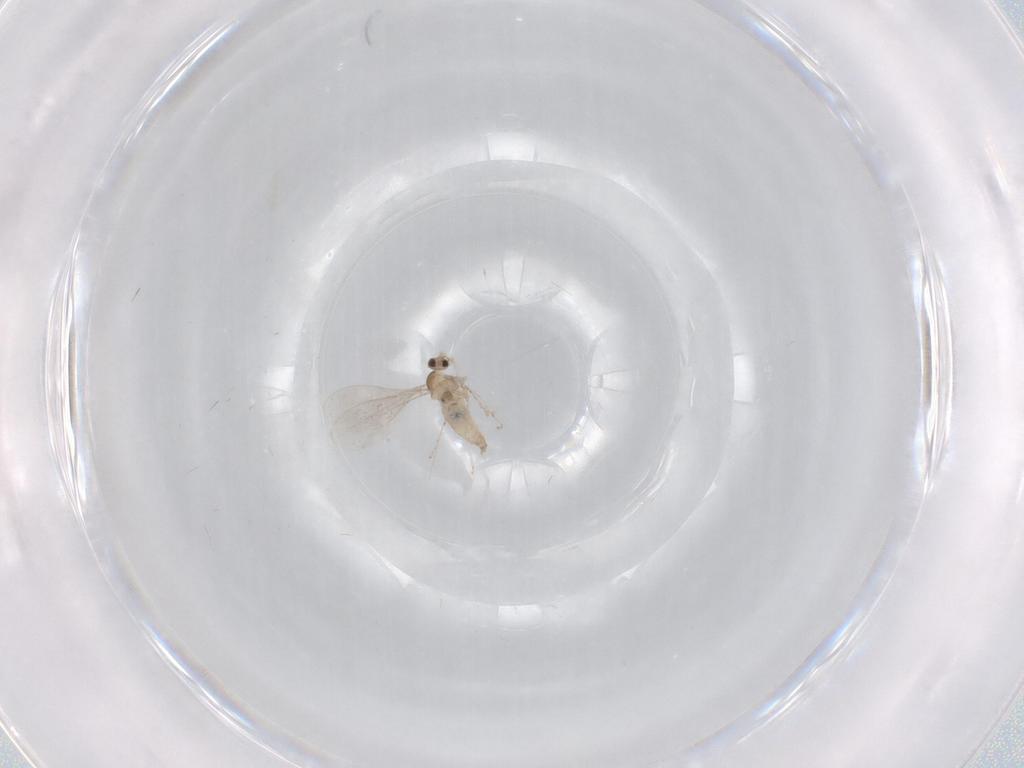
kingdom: Animalia
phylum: Arthropoda
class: Insecta
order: Diptera
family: Cecidomyiidae
